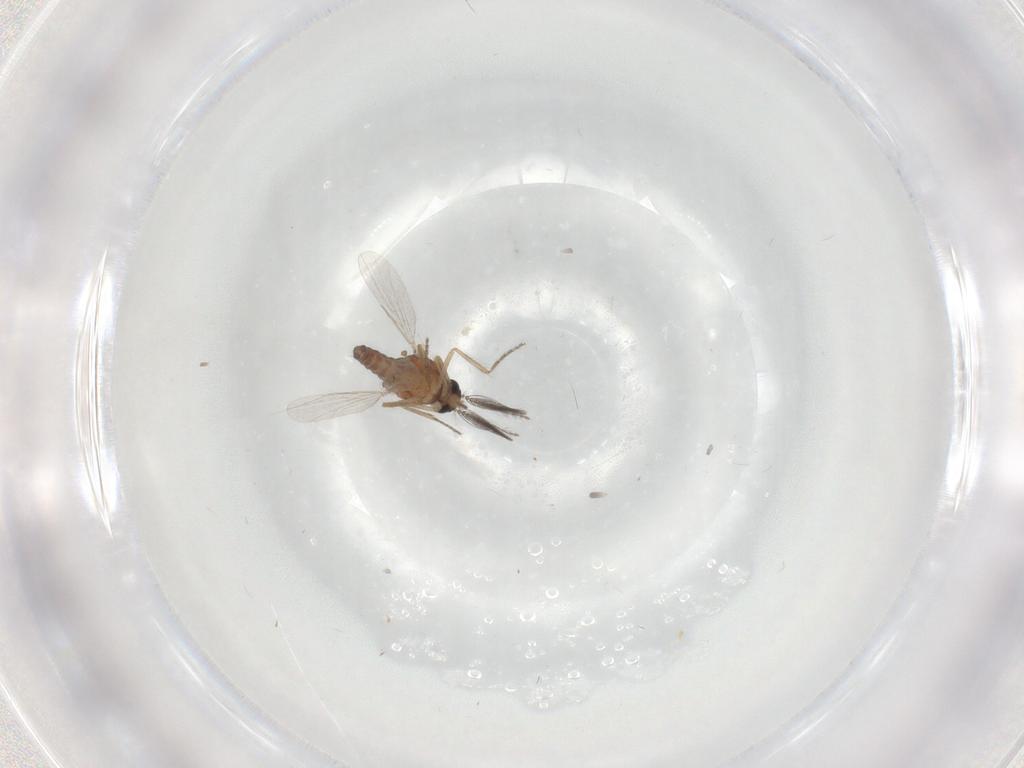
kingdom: Animalia
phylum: Arthropoda
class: Insecta
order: Diptera
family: Ceratopogonidae
